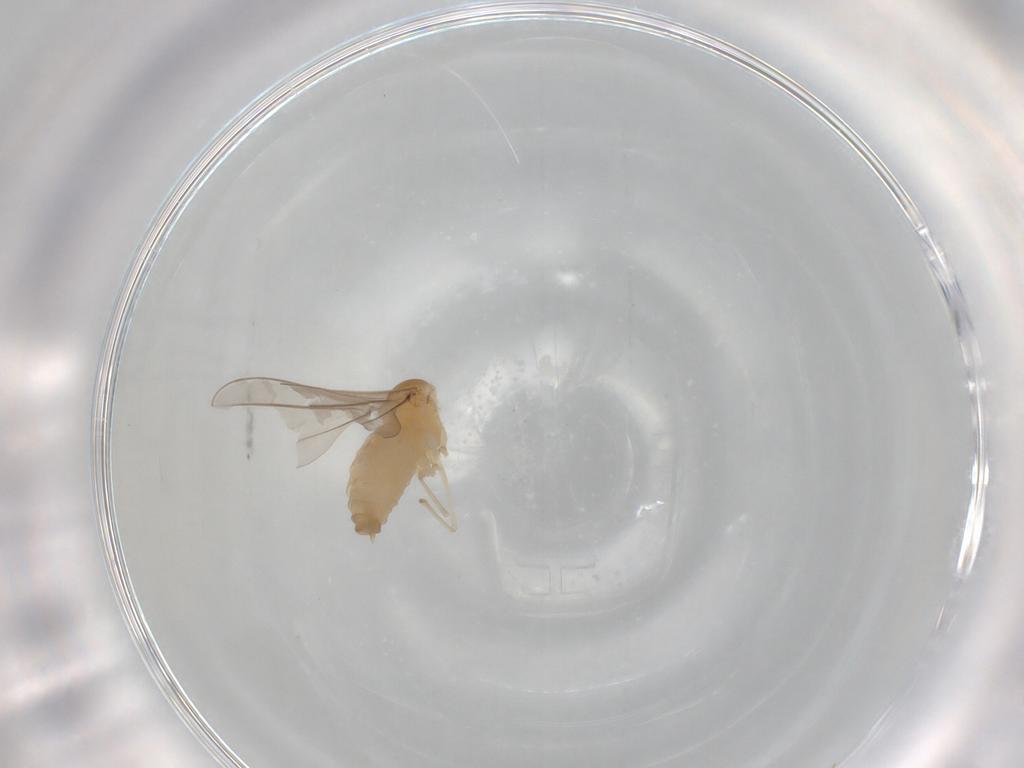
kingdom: Animalia
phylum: Arthropoda
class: Insecta
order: Diptera
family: Cecidomyiidae
